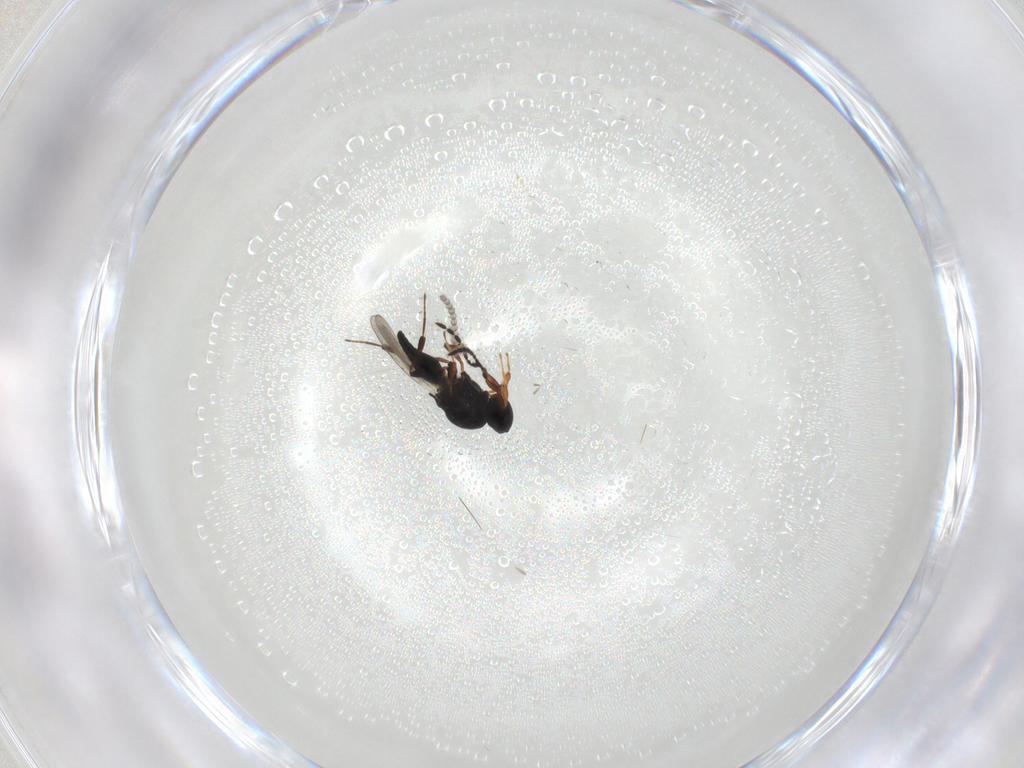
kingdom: Animalia
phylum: Arthropoda
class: Insecta
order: Hymenoptera
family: Platygastridae
